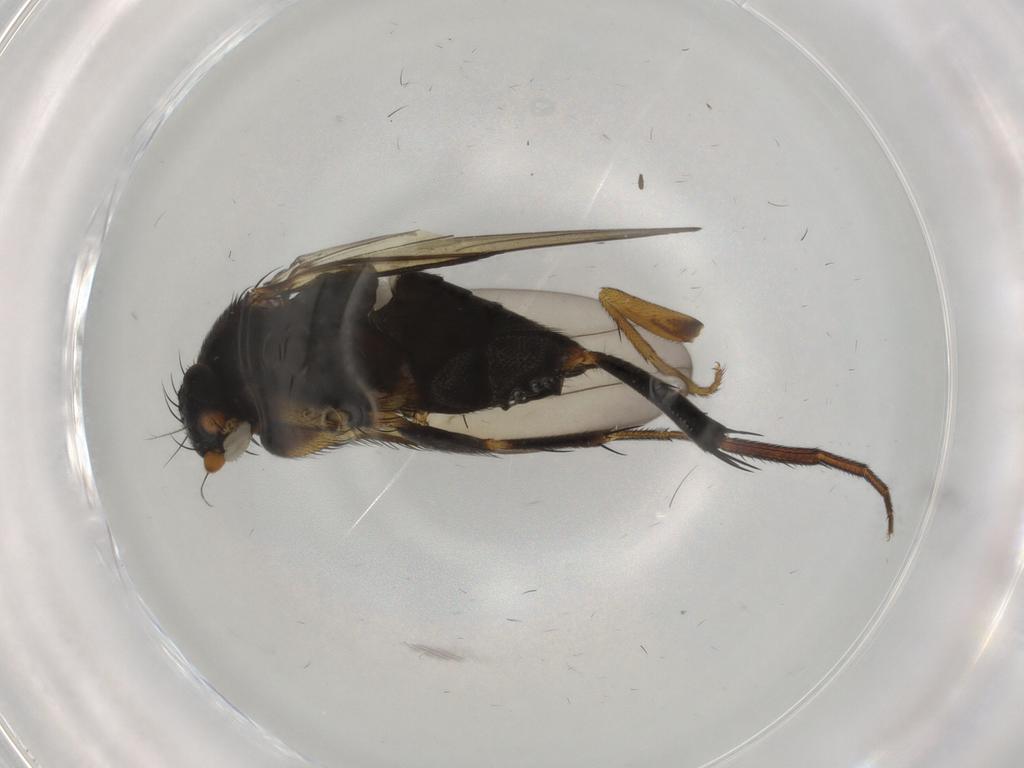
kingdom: Animalia
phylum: Arthropoda
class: Insecta
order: Diptera
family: Phoridae
